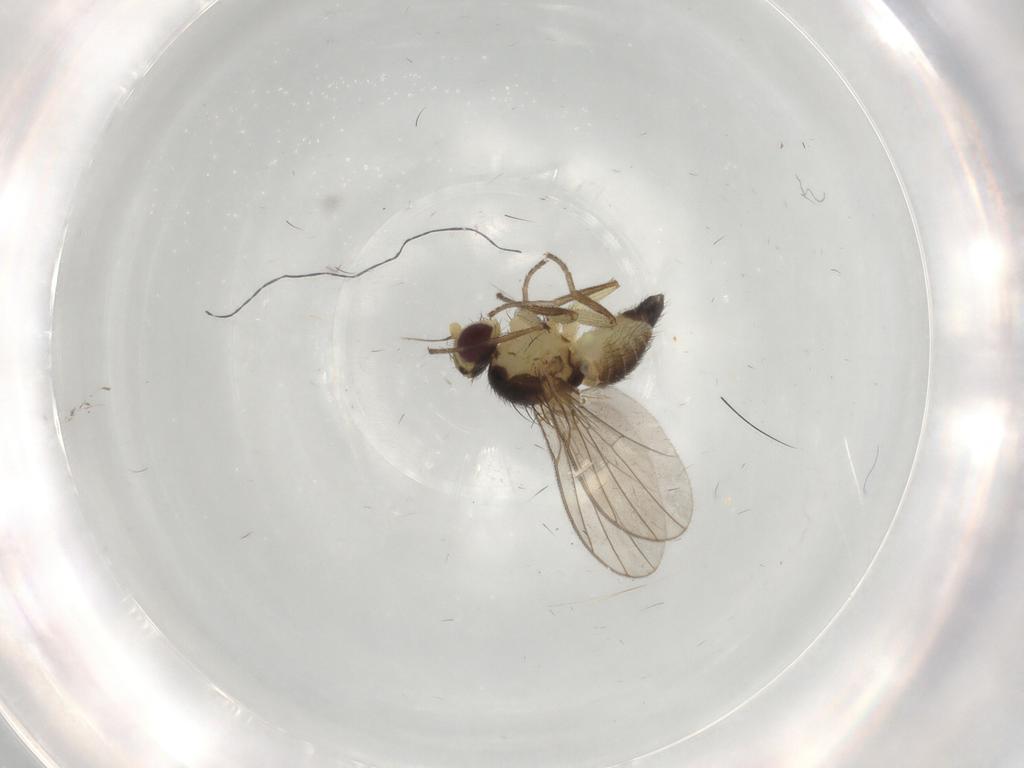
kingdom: Animalia
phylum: Arthropoda
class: Insecta
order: Diptera
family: Agromyzidae
